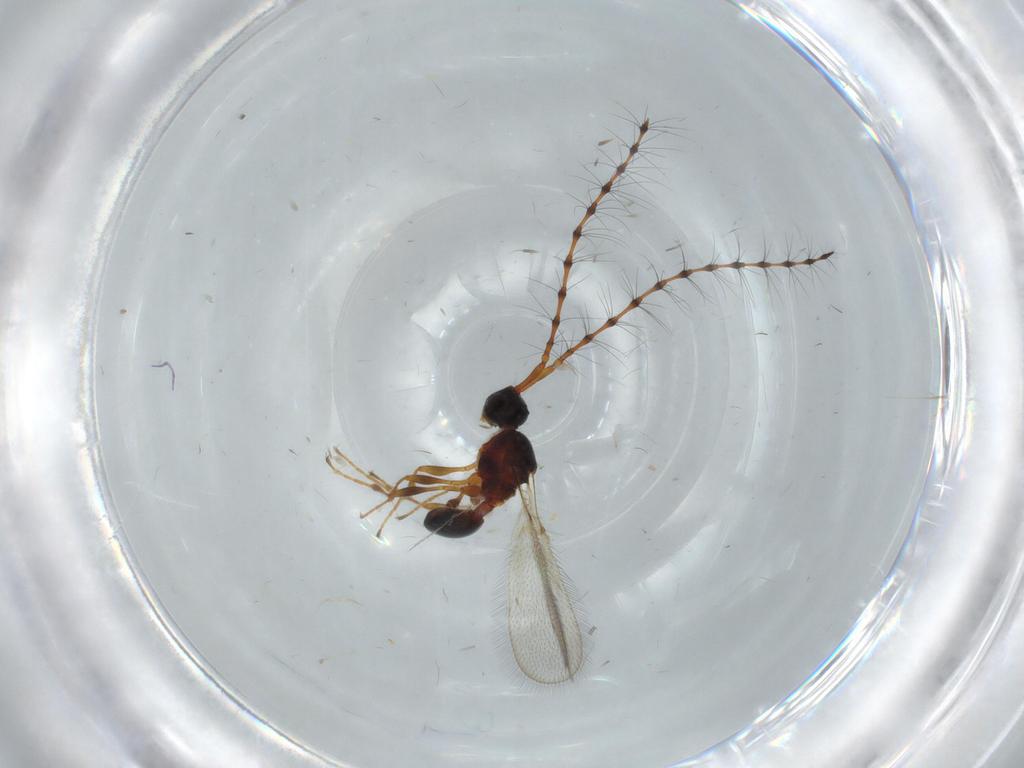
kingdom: Animalia
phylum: Arthropoda
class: Insecta
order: Hymenoptera
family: Diapriidae
